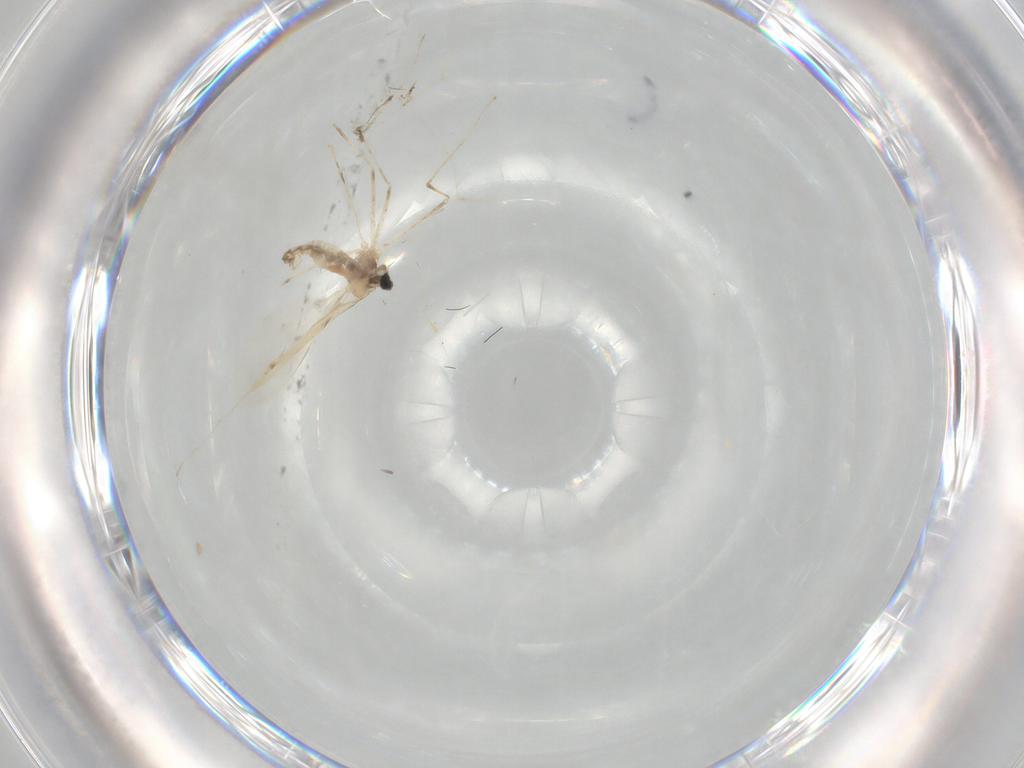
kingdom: Animalia
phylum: Arthropoda
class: Insecta
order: Diptera
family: Cecidomyiidae
